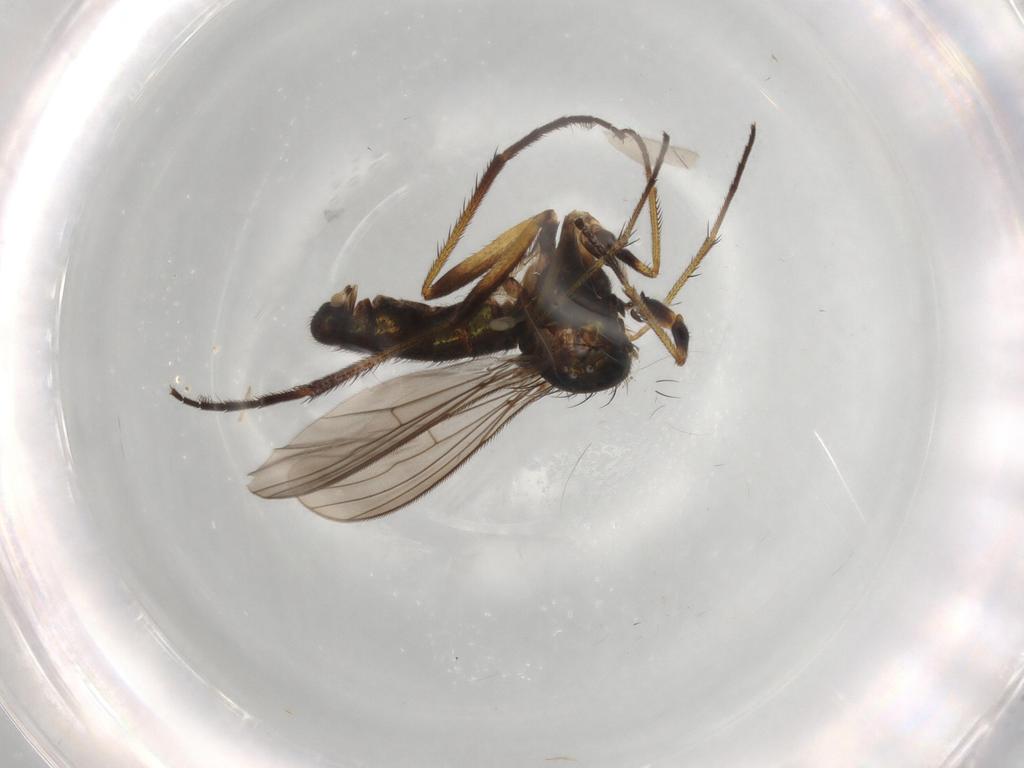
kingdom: Animalia
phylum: Arthropoda
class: Insecta
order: Diptera
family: Dolichopodidae
